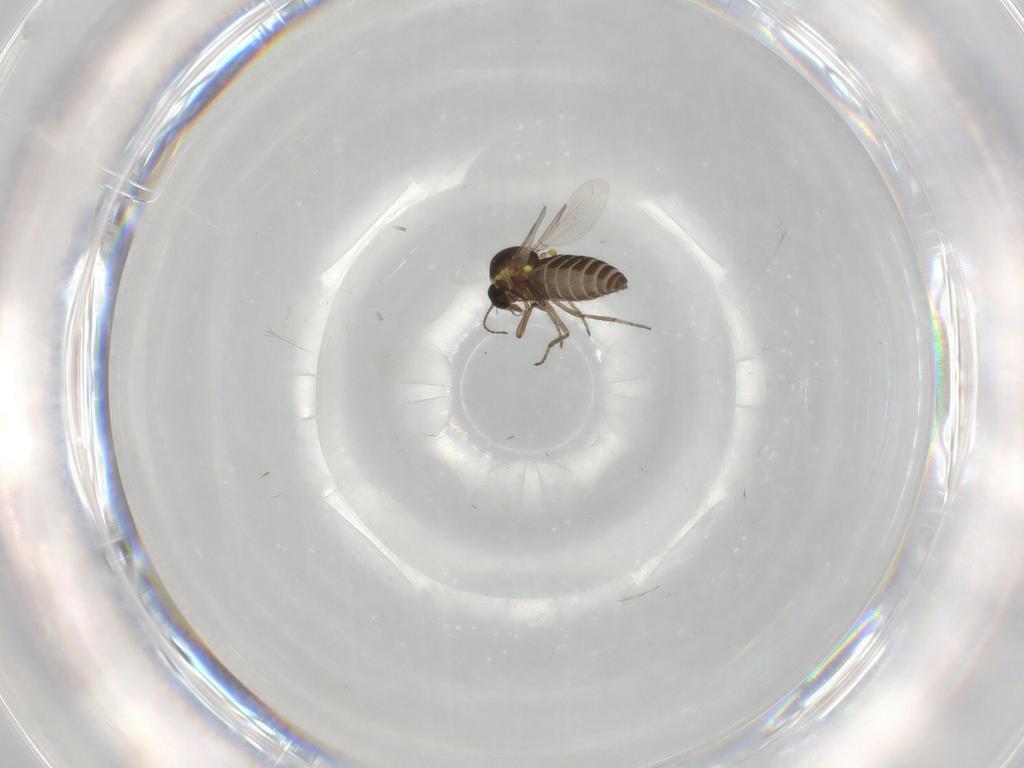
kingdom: Animalia
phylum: Arthropoda
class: Insecta
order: Diptera
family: Ceratopogonidae
